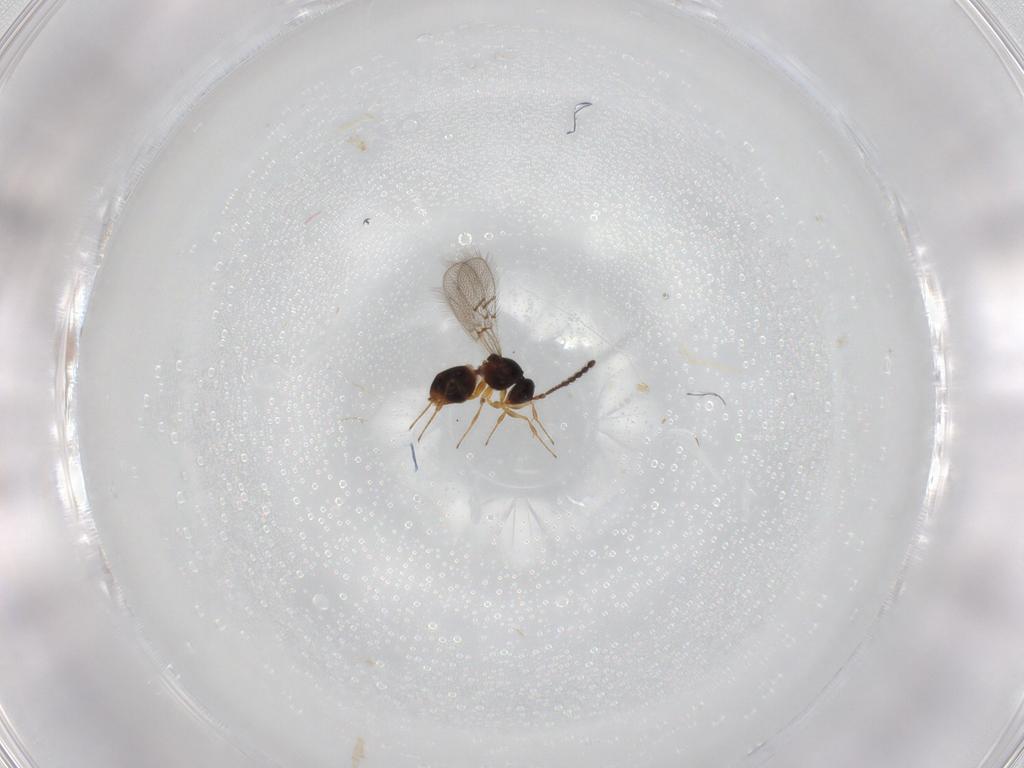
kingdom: Animalia
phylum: Arthropoda
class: Insecta
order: Hymenoptera
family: Figitidae
